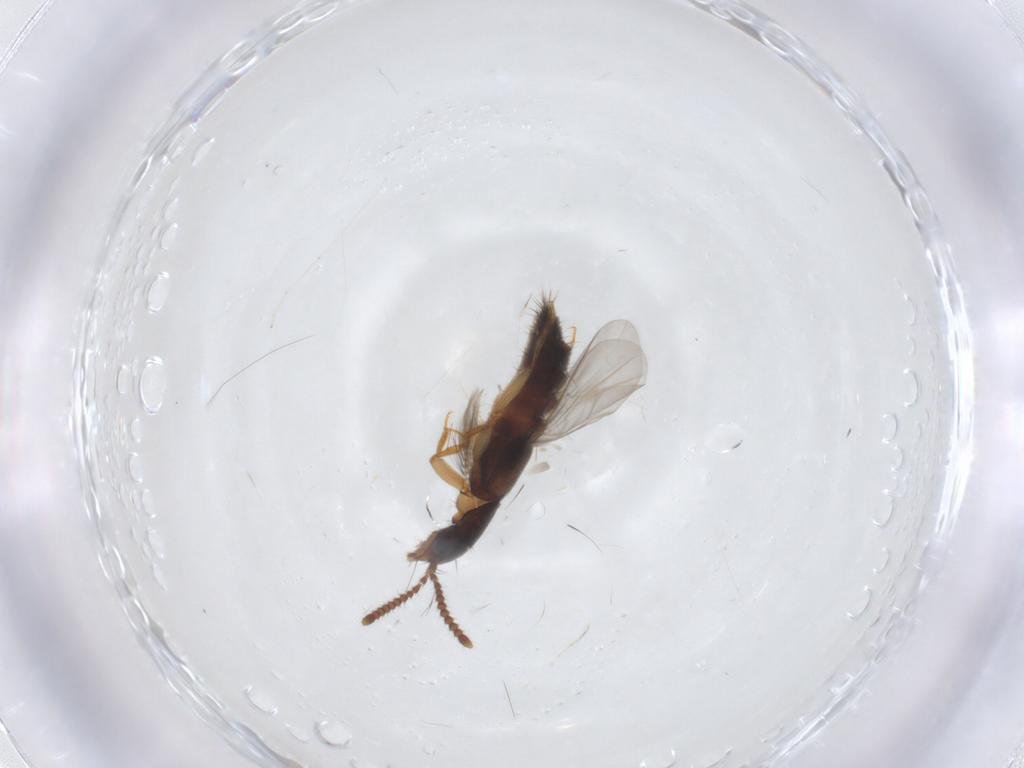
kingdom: Animalia
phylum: Arthropoda
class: Insecta
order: Coleoptera
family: Staphylinidae
